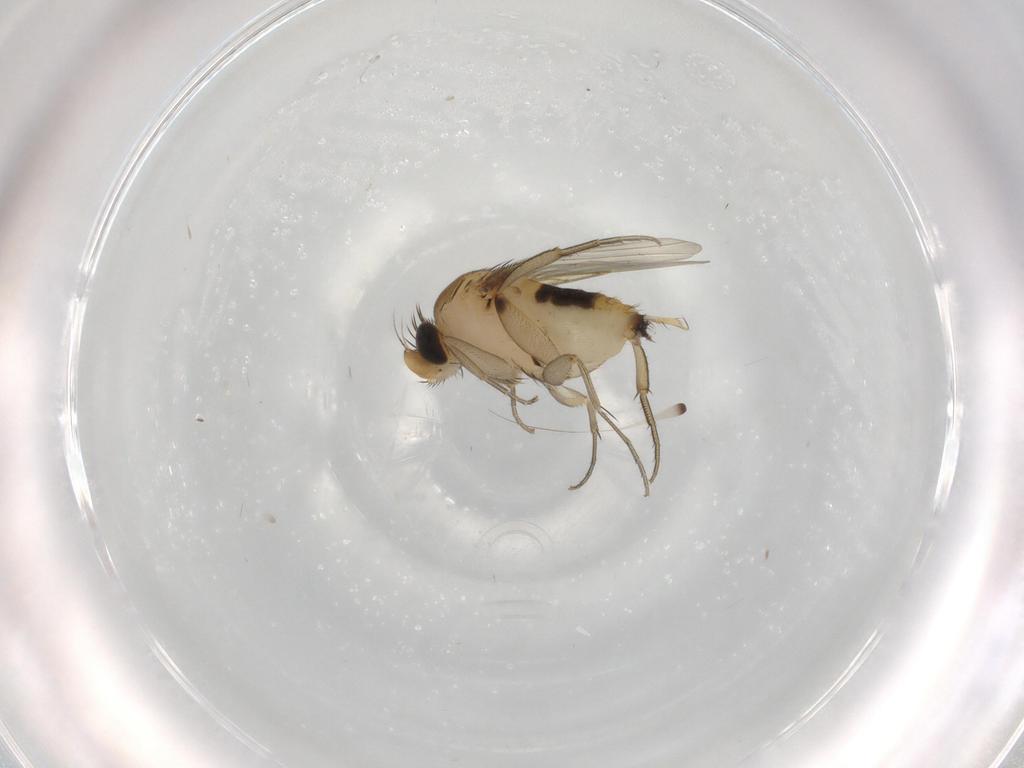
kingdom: Animalia
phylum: Arthropoda
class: Insecta
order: Diptera
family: Phoridae
